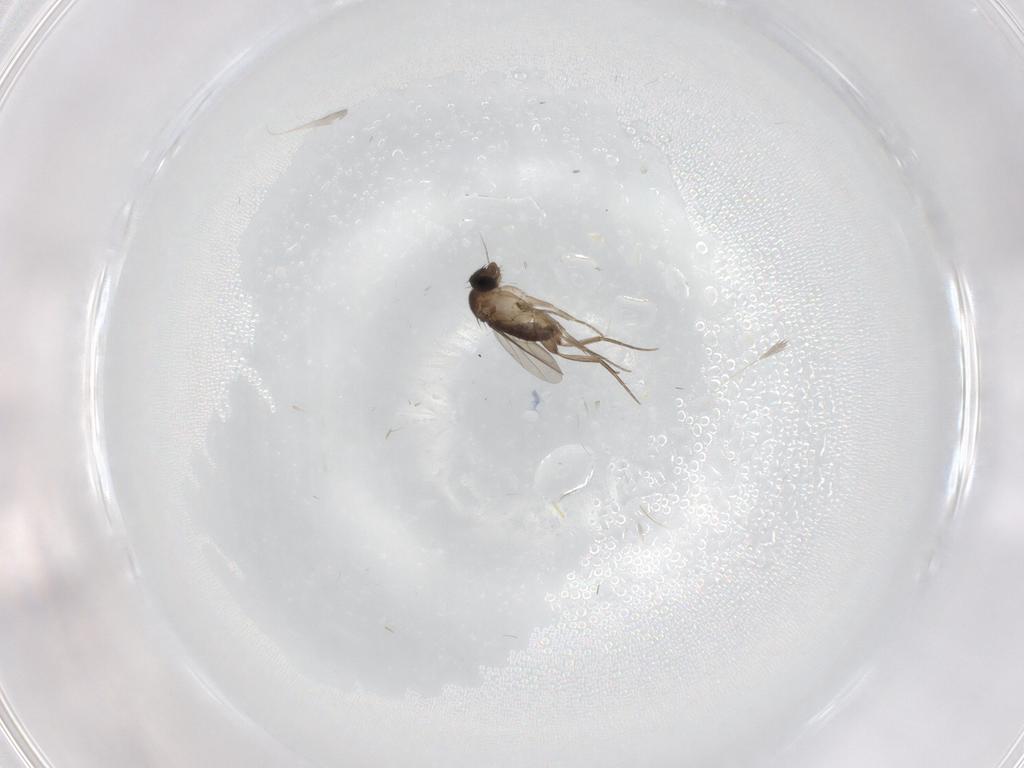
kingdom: Animalia
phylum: Arthropoda
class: Insecta
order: Diptera
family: Phoridae
